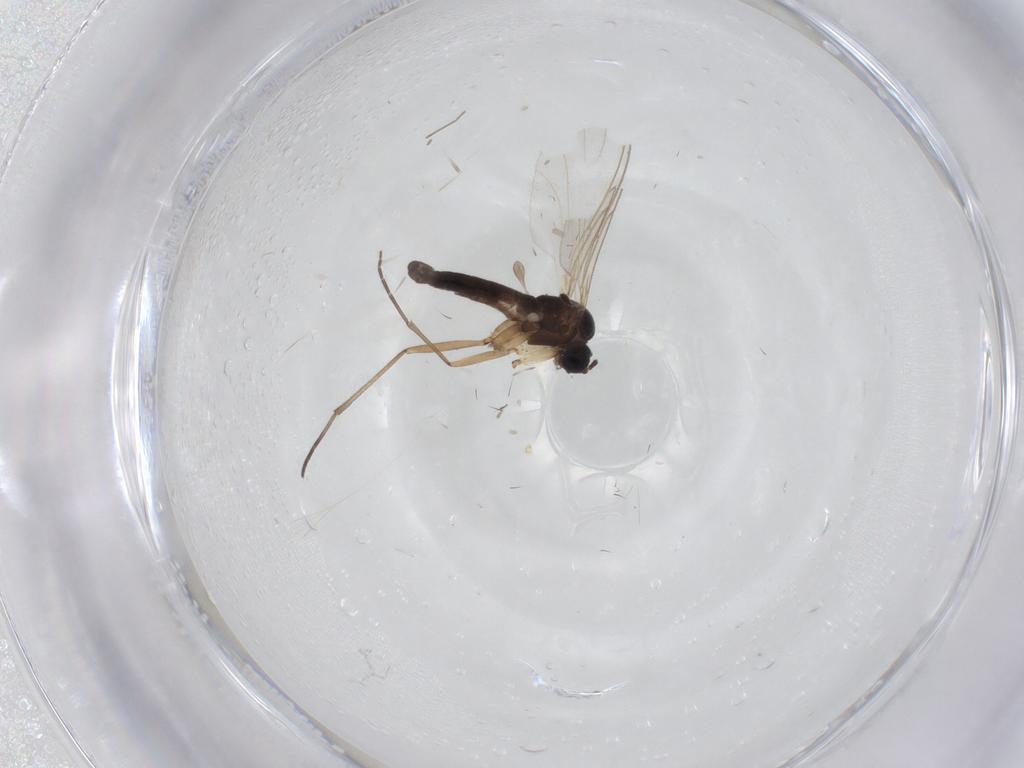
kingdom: Animalia
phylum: Arthropoda
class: Insecta
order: Diptera
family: Sciaridae
